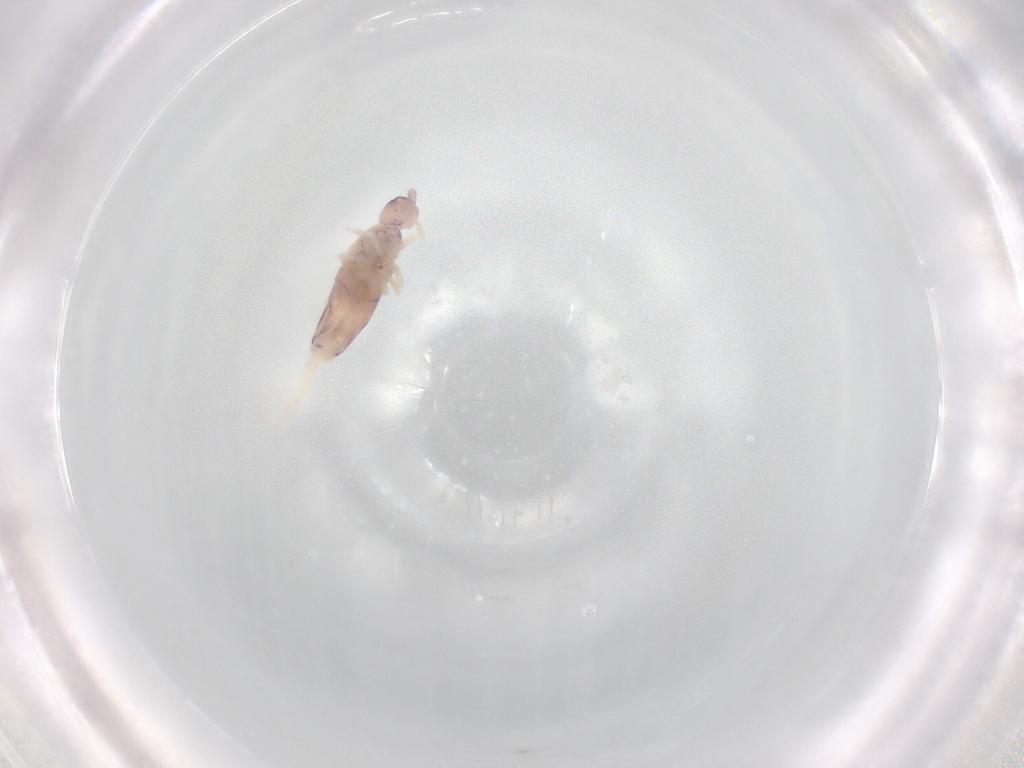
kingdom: Animalia
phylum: Arthropoda
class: Collembola
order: Entomobryomorpha
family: Entomobryidae
